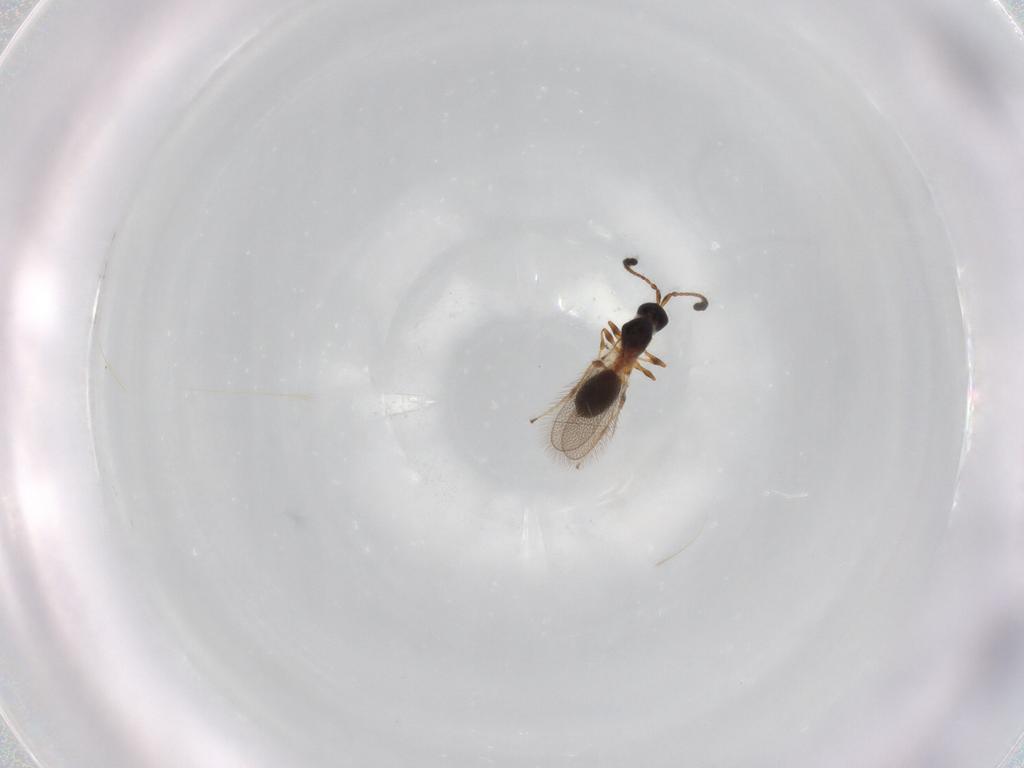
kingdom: Animalia
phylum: Arthropoda
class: Insecta
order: Hymenoptera
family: Diapriidae
